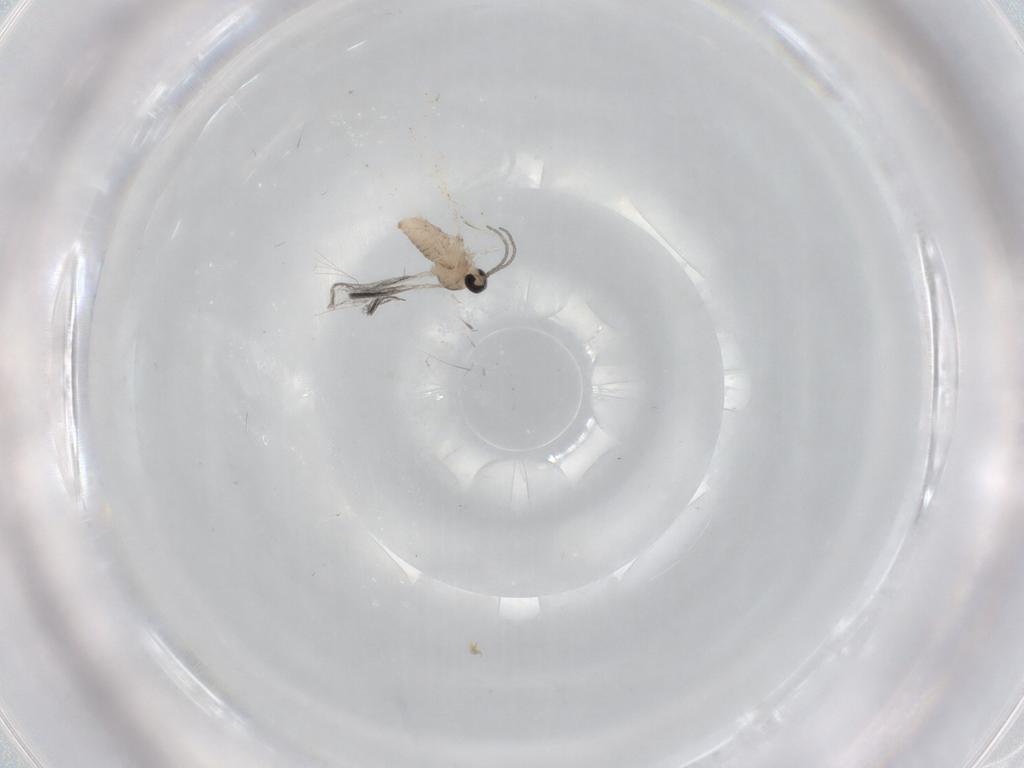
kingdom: Animalia
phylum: Arthropoda
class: Insecta
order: Diptera
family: Cecidomyiidae
